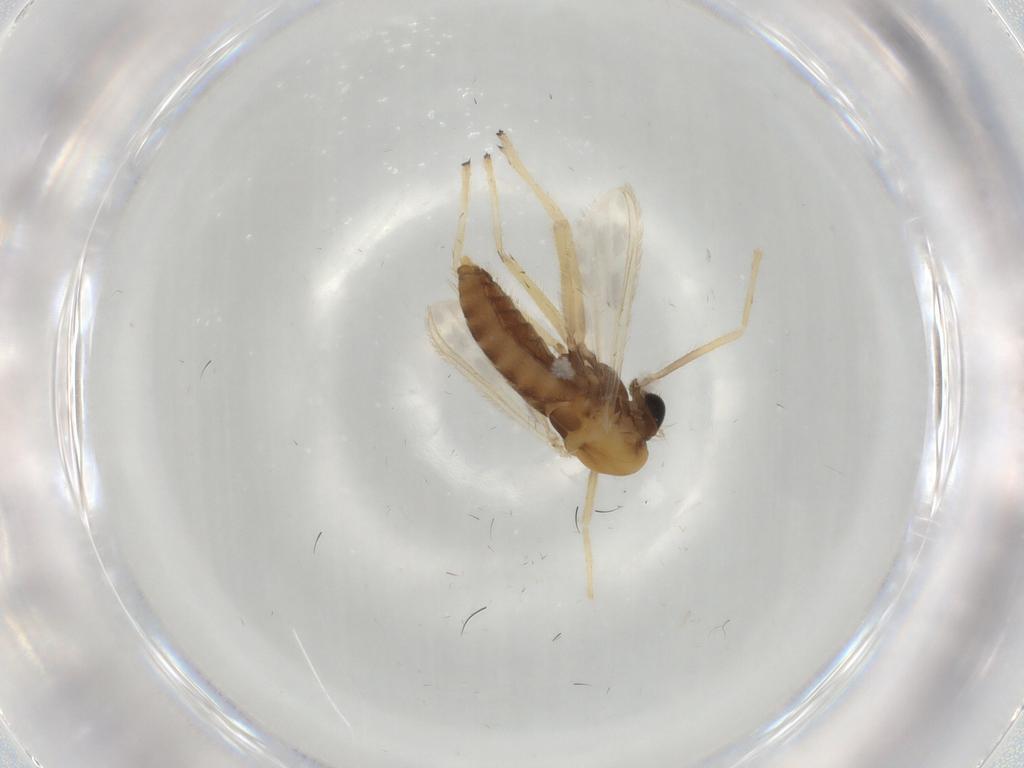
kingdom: Animalia
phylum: Arthropoda
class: Insecta
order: Diptera
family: Chironomidae
